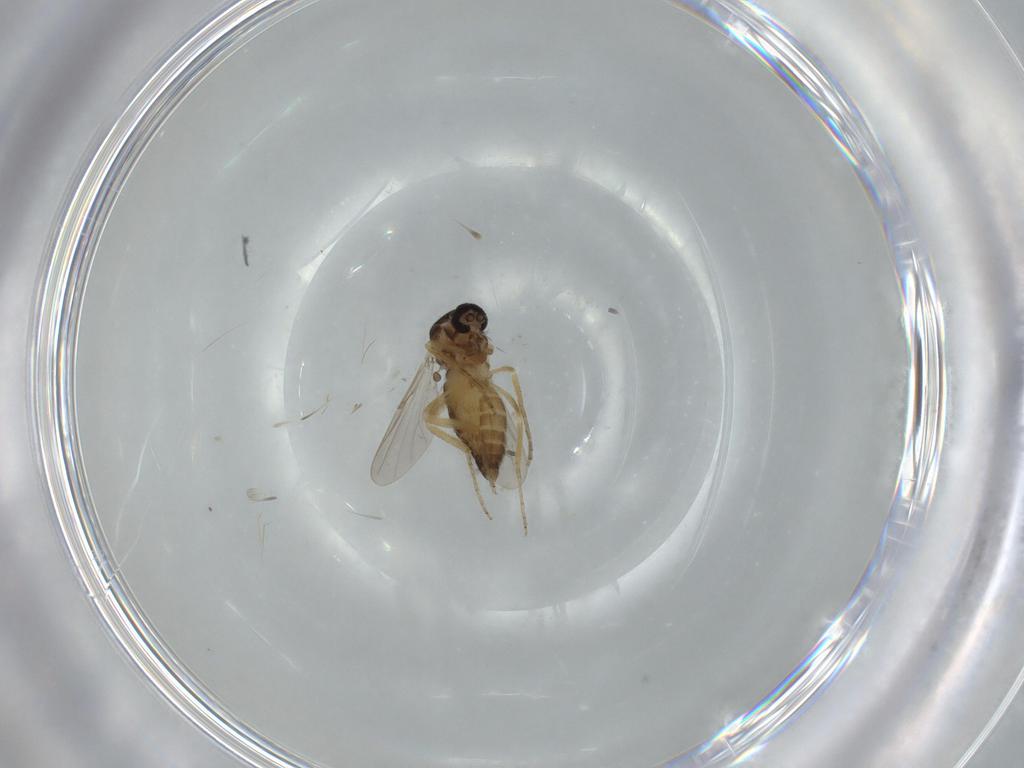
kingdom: Animalia
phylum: Arthropoda
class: Insecta
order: Diptera
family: Ceratopogonidae
